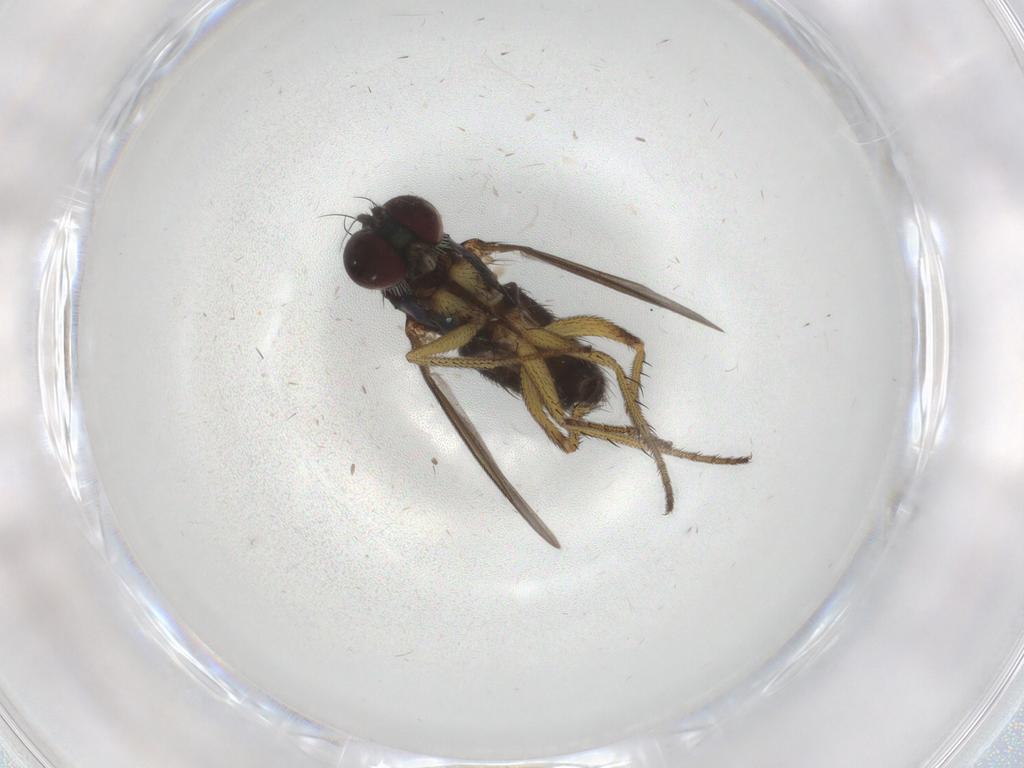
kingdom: Animalia
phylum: Arthropoda
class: Insecta
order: Diptera
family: Dolichopodidae
